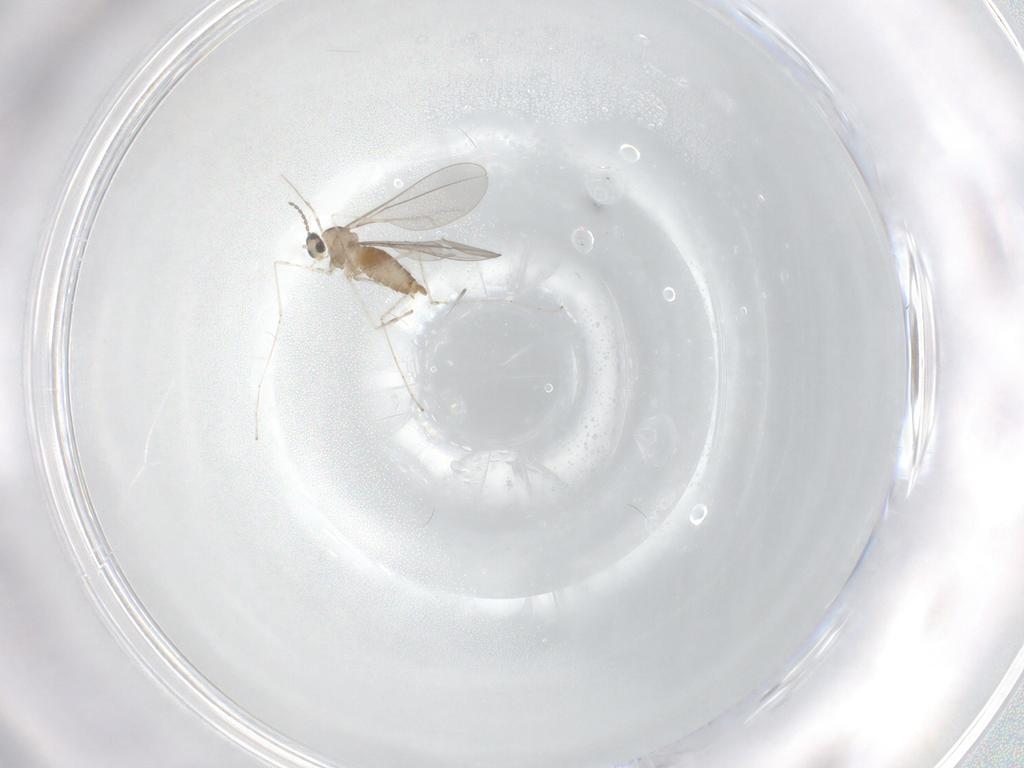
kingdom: Animalia
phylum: Arthropoda
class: Insecta
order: Diptera
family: Cecidomyiidae
